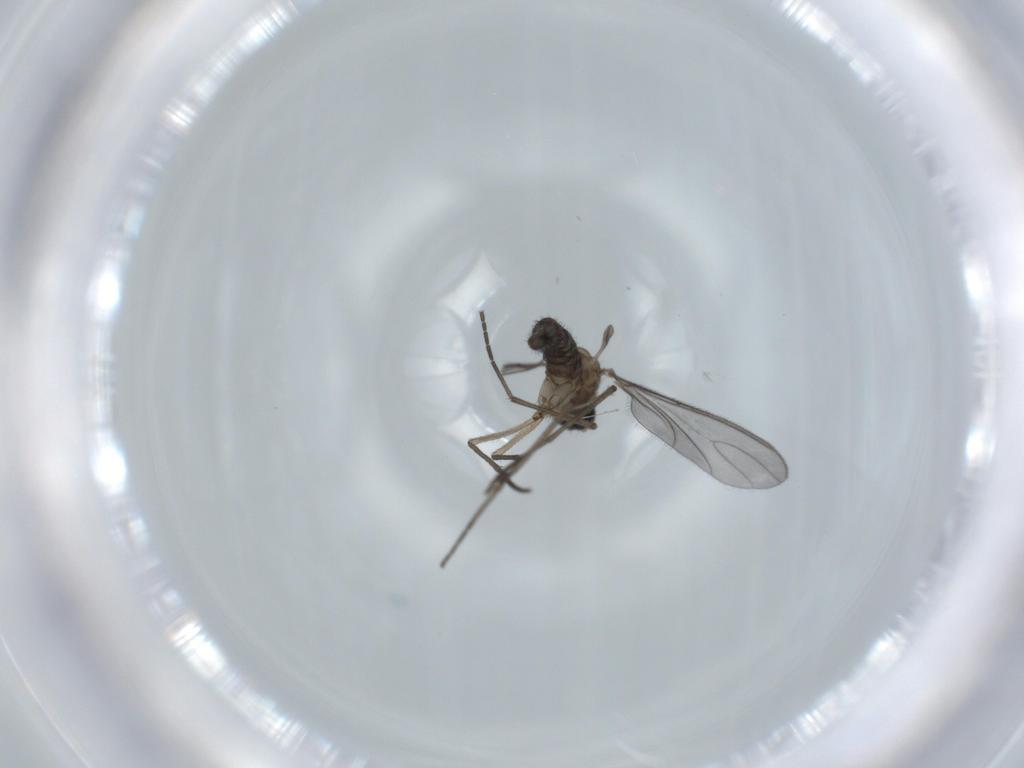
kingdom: Animalia
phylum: Arthropoda
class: Insecta
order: Diptera
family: Sciaridae
